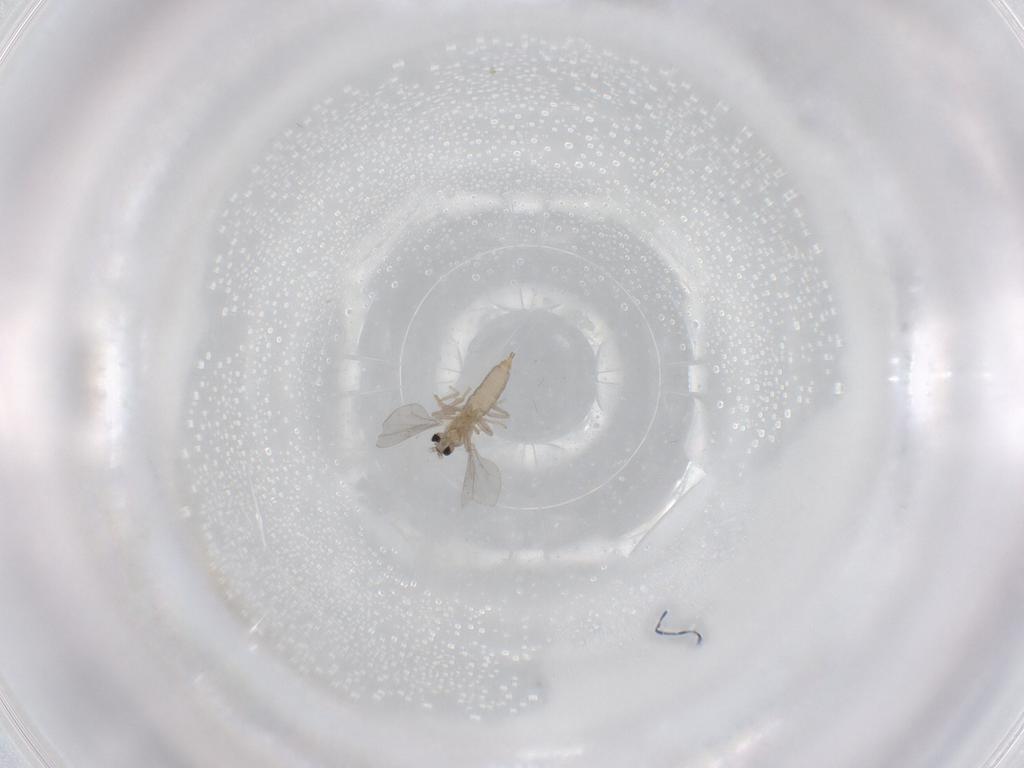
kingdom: Animalia
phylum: Arthropoda
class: Insecta
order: Diptera
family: Cecidomyiidae
